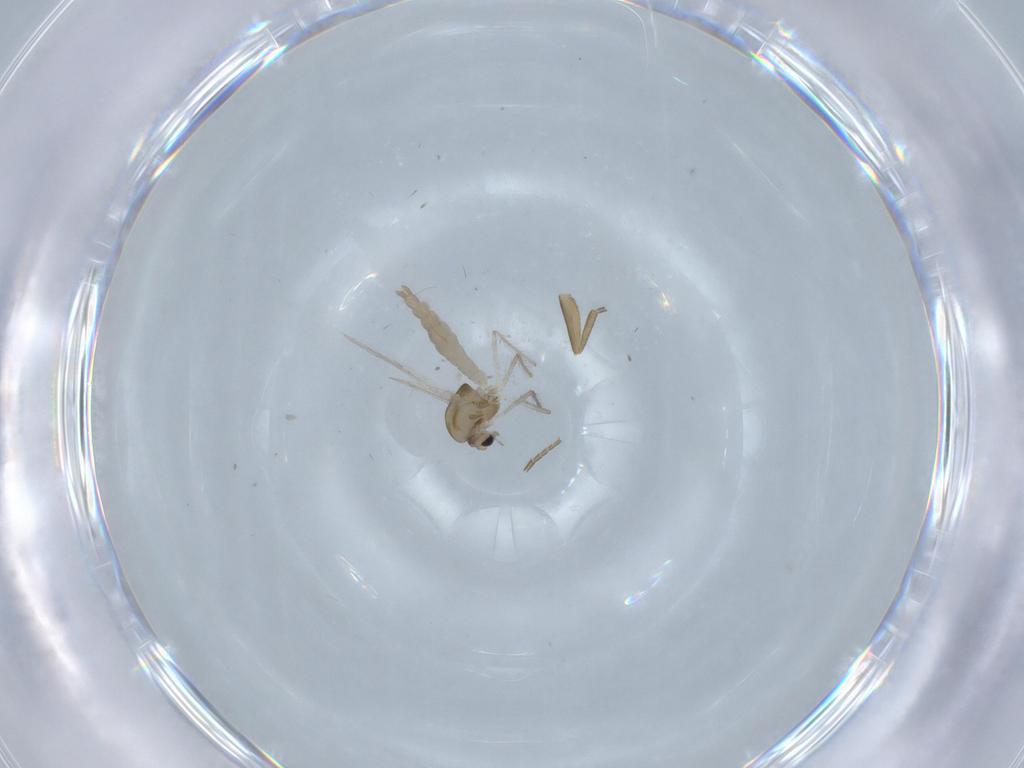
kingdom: Animalia
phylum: Arthropoda
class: Insecta
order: Diptera
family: Chironomidae
